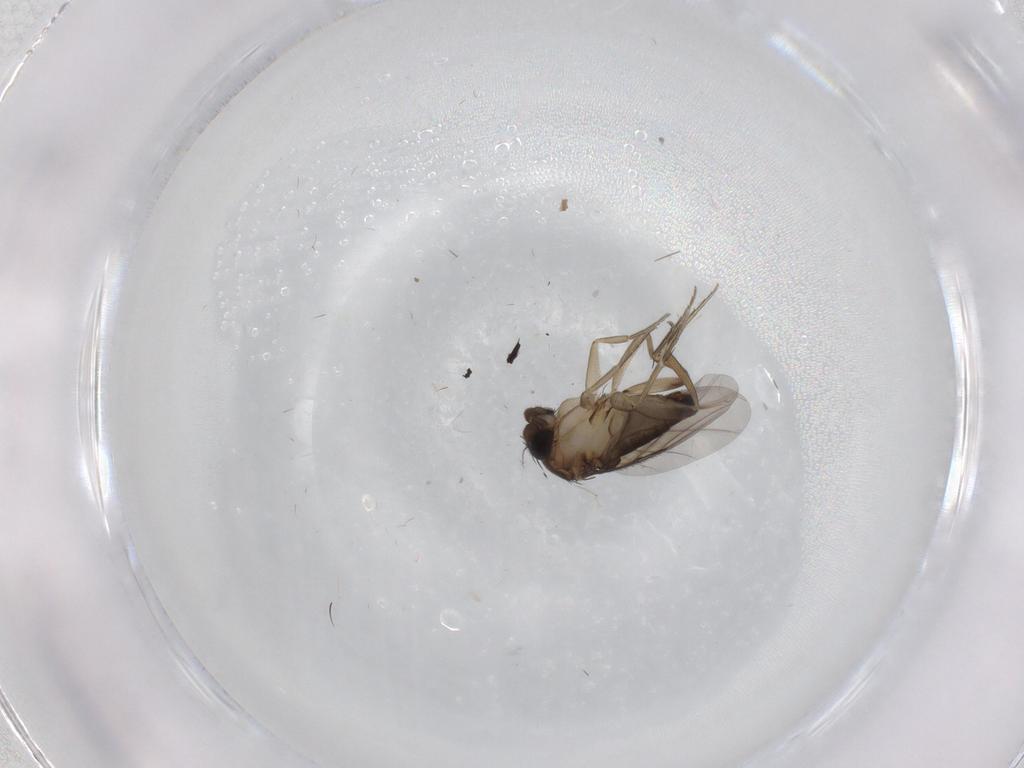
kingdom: Animalia
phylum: Arthropoda
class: Insecta
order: Diptera
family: Cecidomyiidae
